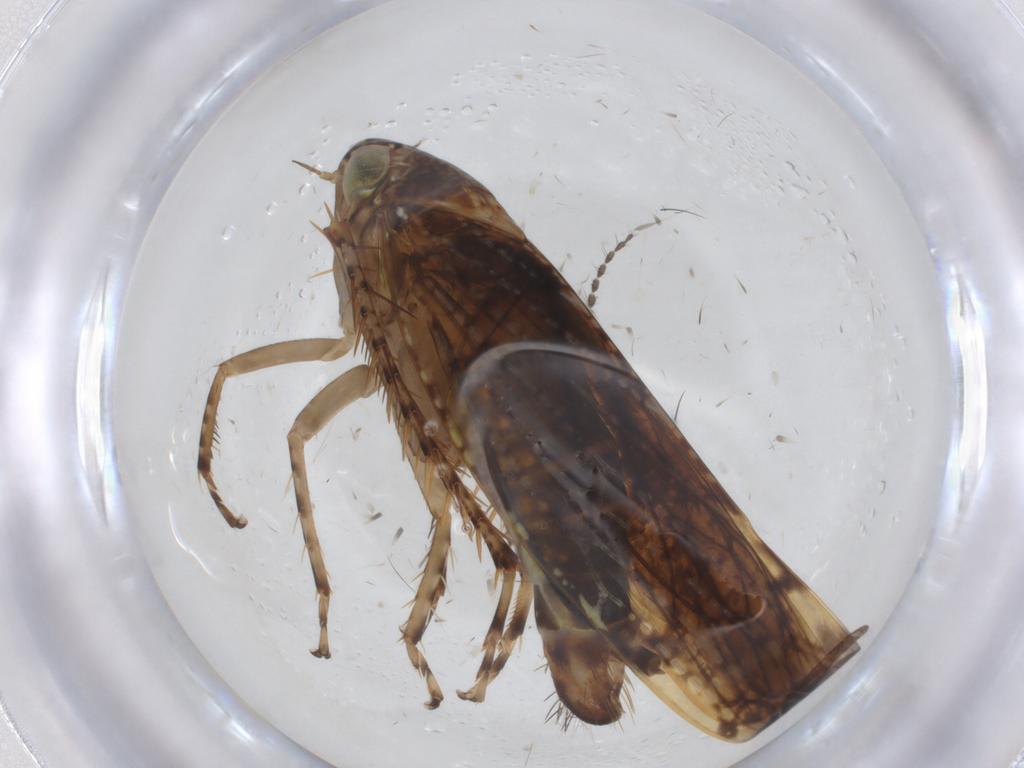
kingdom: Animalia
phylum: Arthropoda
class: Insecta
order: Hemiptera
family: Cicadellidae
